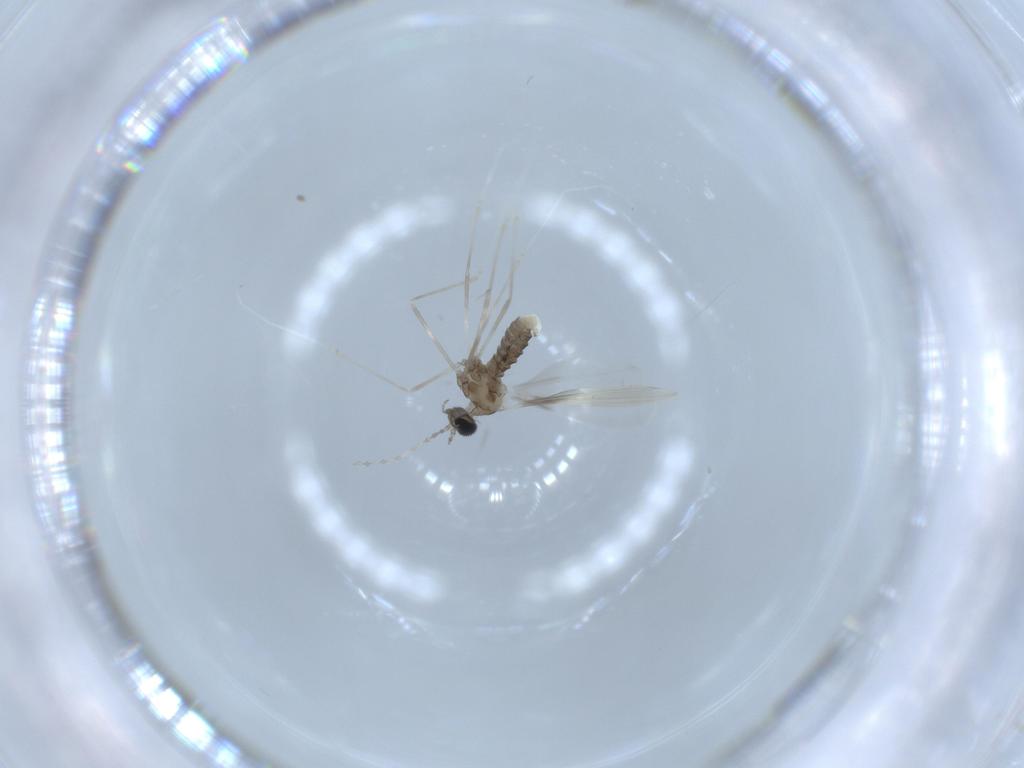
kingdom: Animalia
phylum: Arthropoda
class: Insecta
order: Diptera
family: Cecidomyiidae
